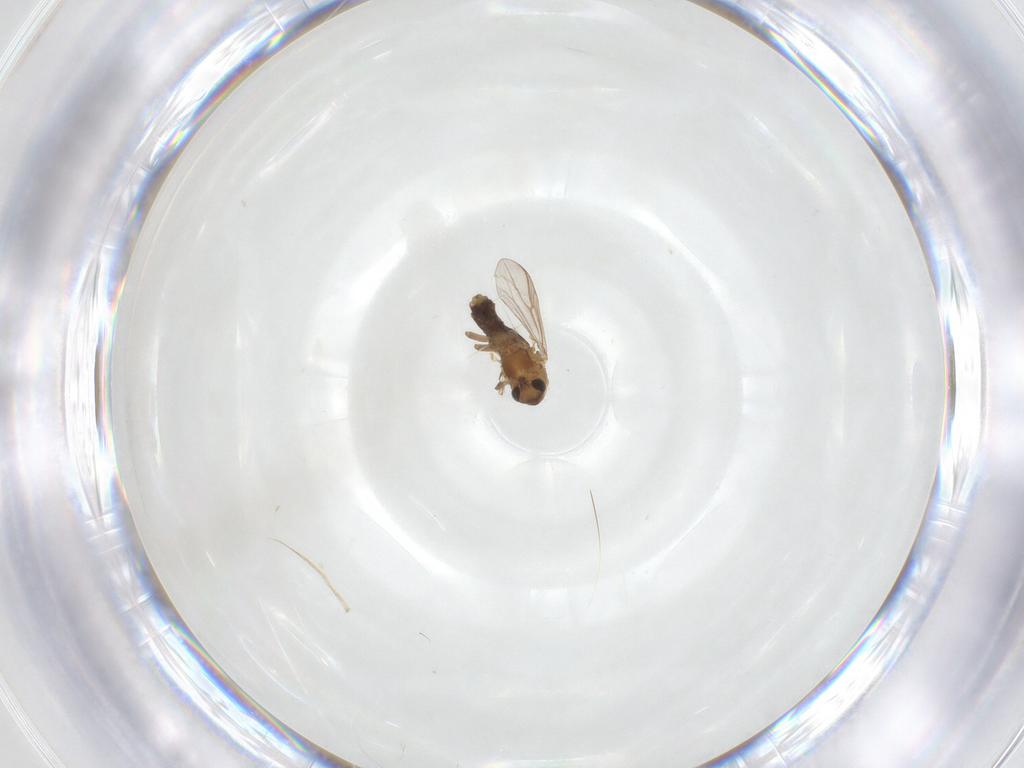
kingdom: Animalia
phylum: Arthropoda
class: Insecta
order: Diptera
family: Chironomidae
